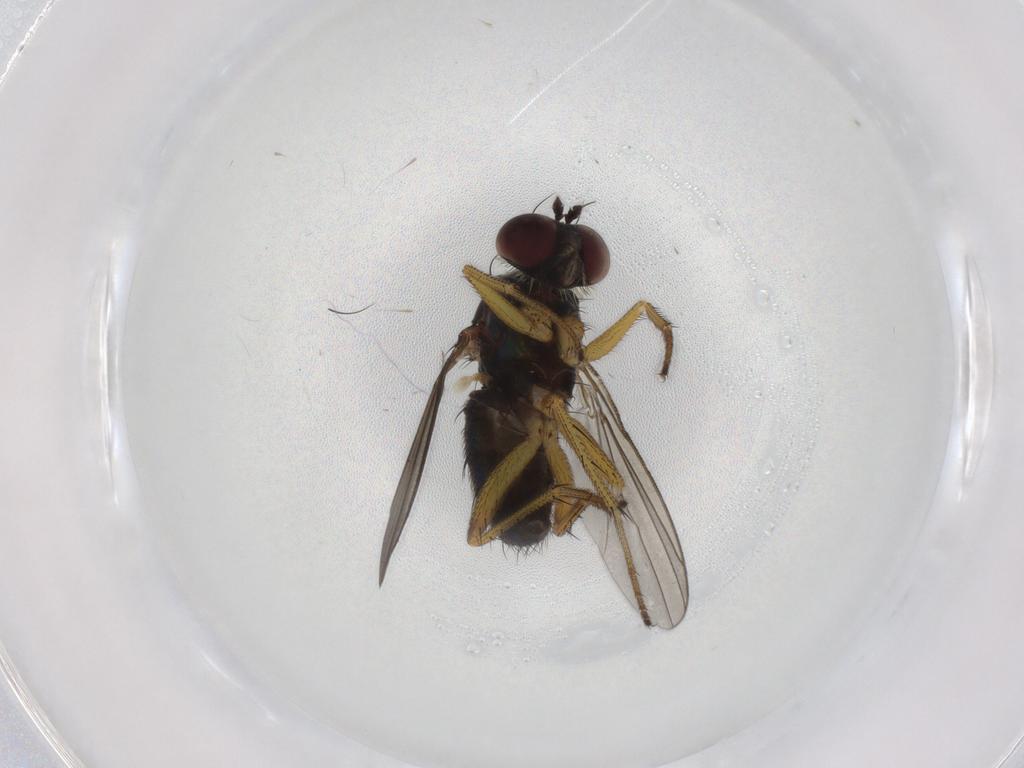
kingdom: Animalia
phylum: Arthropoda
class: Insecta
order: Diptera
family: Dolichopodidae
